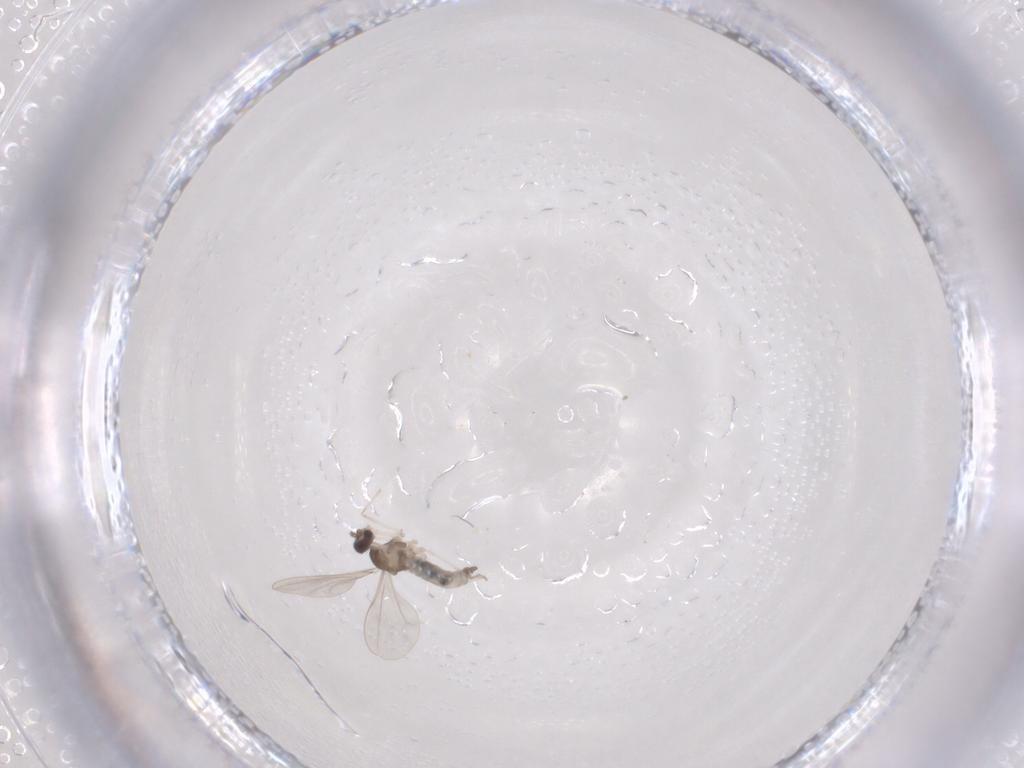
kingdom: Animalia
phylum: Arthropoda
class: Insecta
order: Diptera
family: Cecidomyiidae
